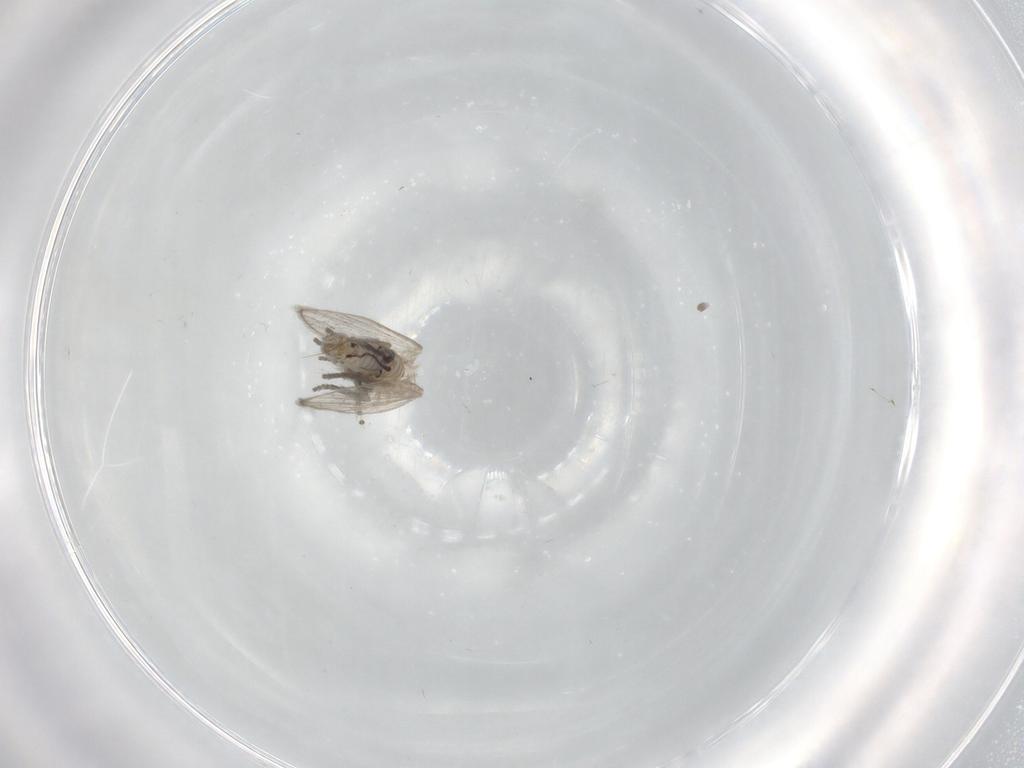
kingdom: Animalia
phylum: Arthropoda
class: Insecta
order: Diptera
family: Psychodidae
